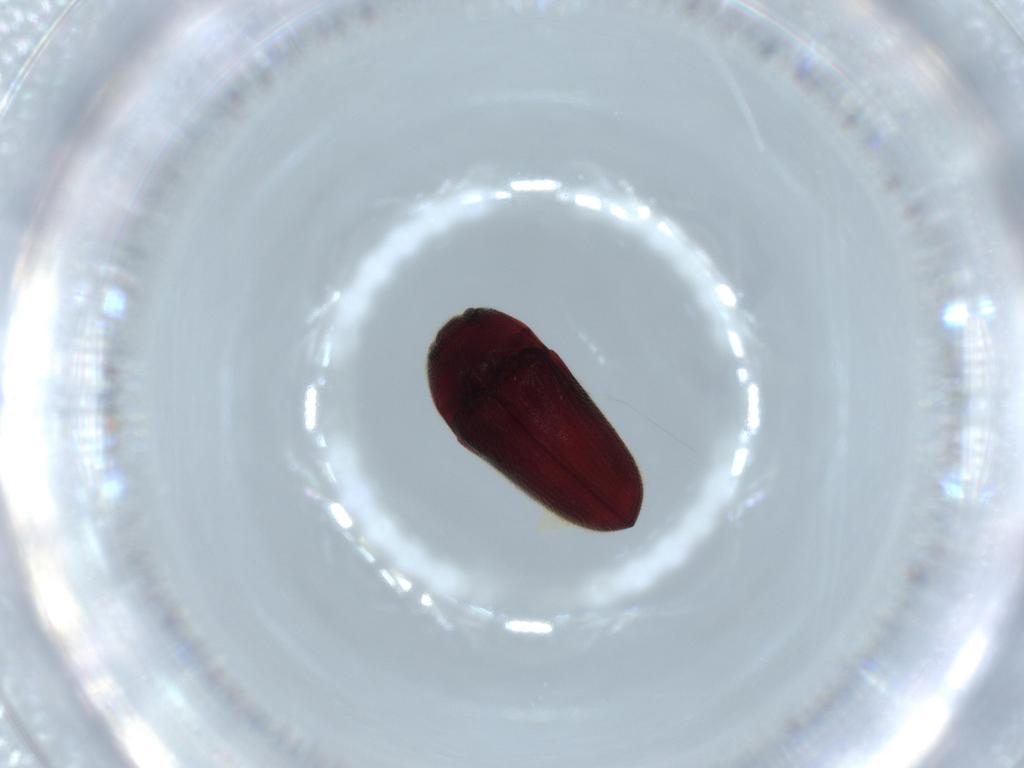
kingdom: Animalia
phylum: Arthropoda
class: Insecta
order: Coleoptera
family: Throscidae
